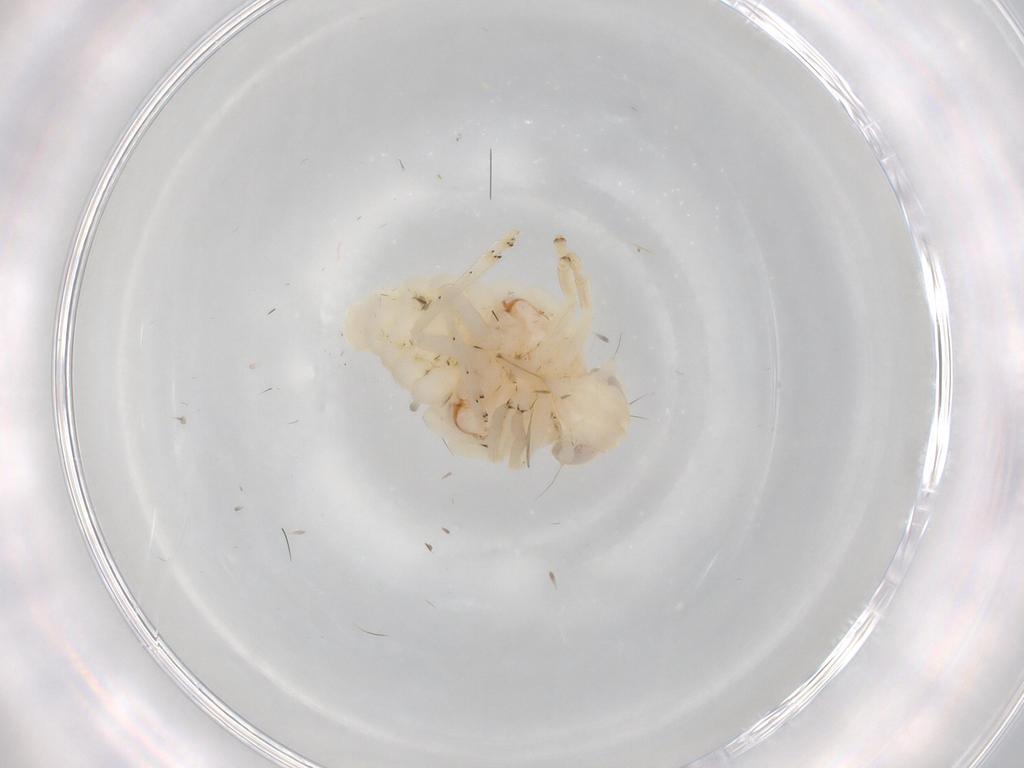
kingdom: Animalia
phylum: Arthropoda
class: Insecta
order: Hemiptera
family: Nogodinidae
